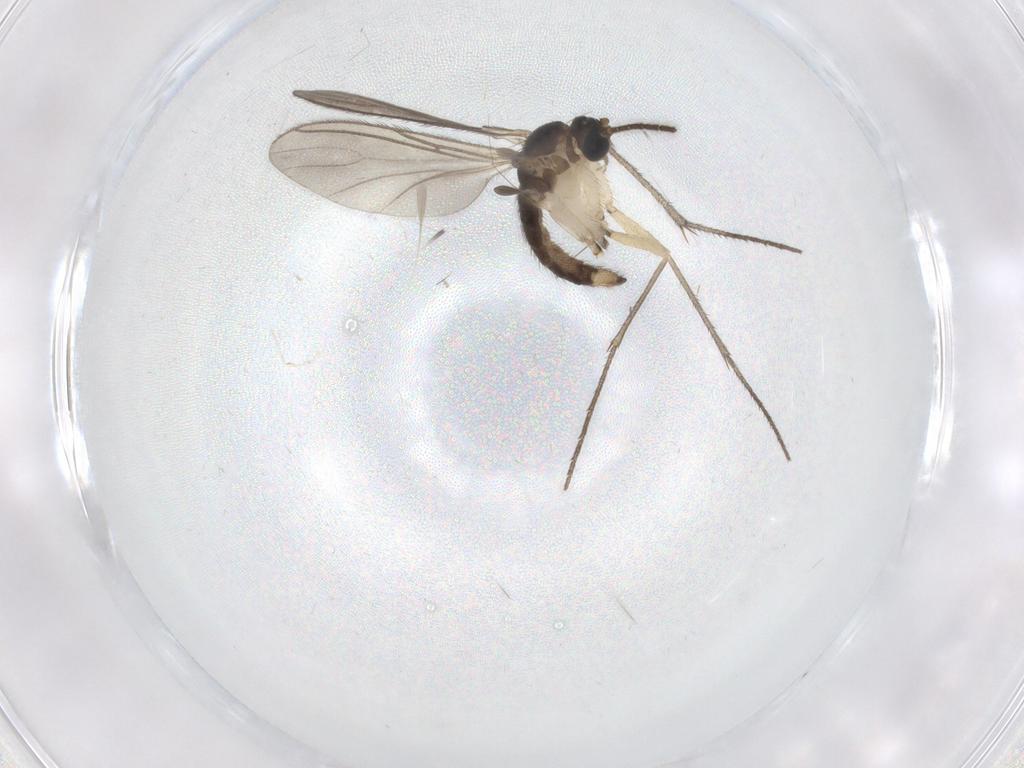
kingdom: Animalia
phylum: Arthropoda
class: Insecta
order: Diptera
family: Sciaridae
